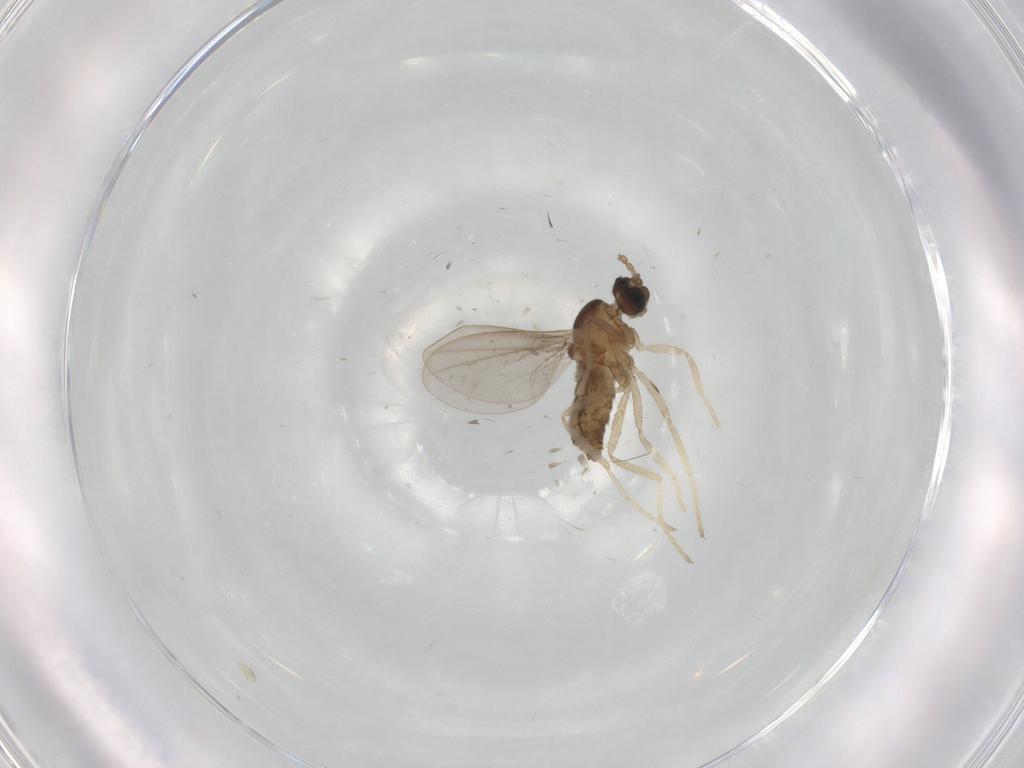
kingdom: Animalia
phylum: Arthropoda
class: Insecta
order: Diptera
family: Cecidomyiidae
